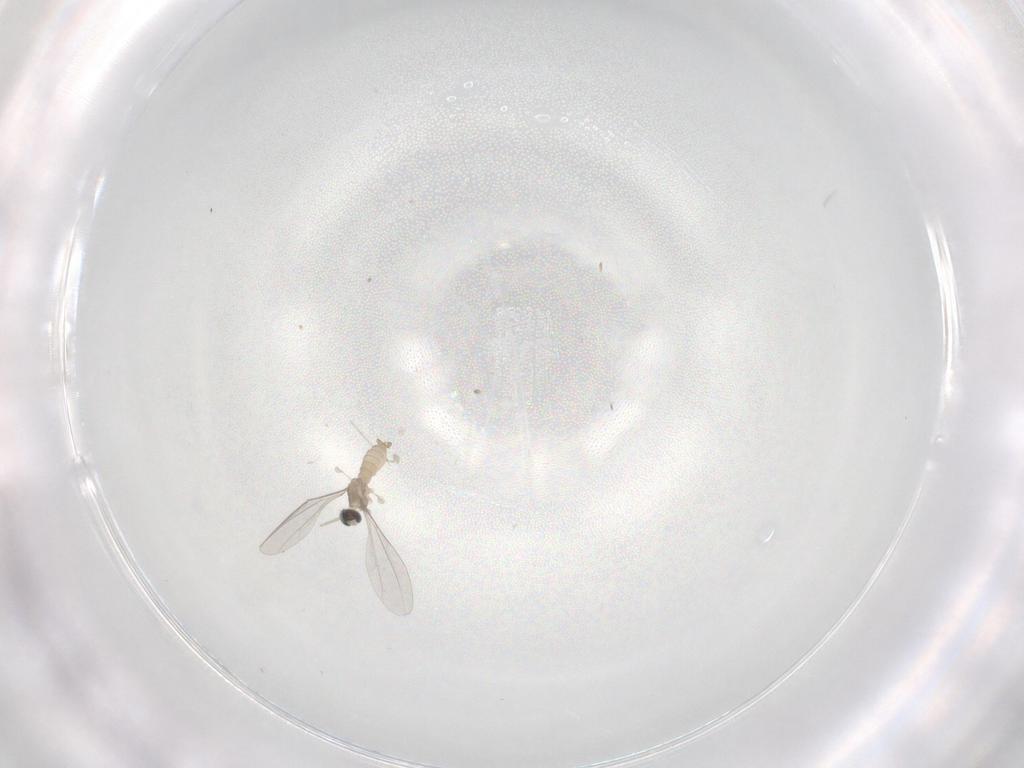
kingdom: Animalia
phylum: Arthropoda
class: Insecta
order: Diptera
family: Cecidomyiidae
